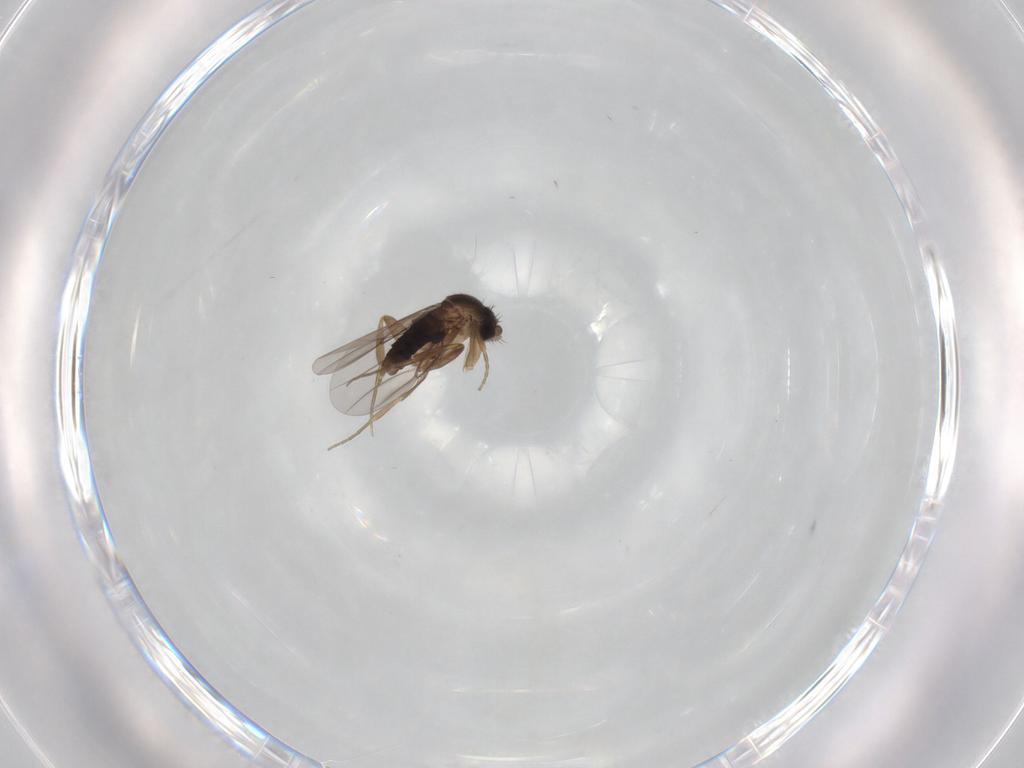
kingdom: Animalia
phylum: Arthropoda
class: Insecta
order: Diptera
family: Phoridae
